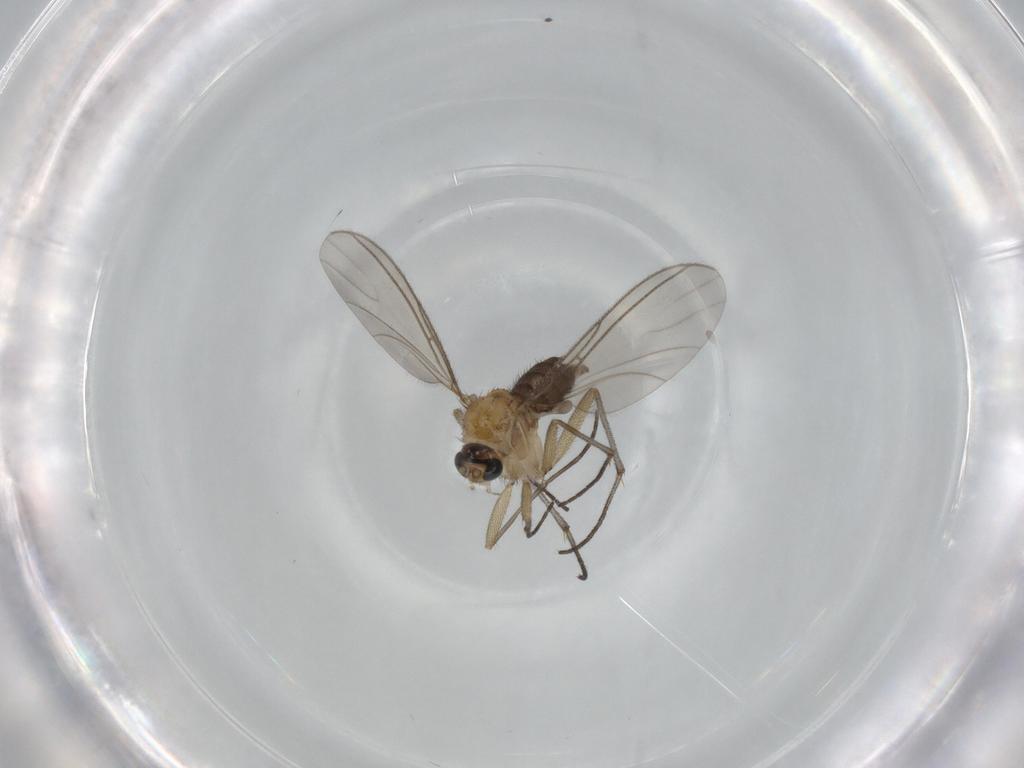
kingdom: Animalia
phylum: Arthropoda
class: Insecta
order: Diptera
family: Sciaridae
